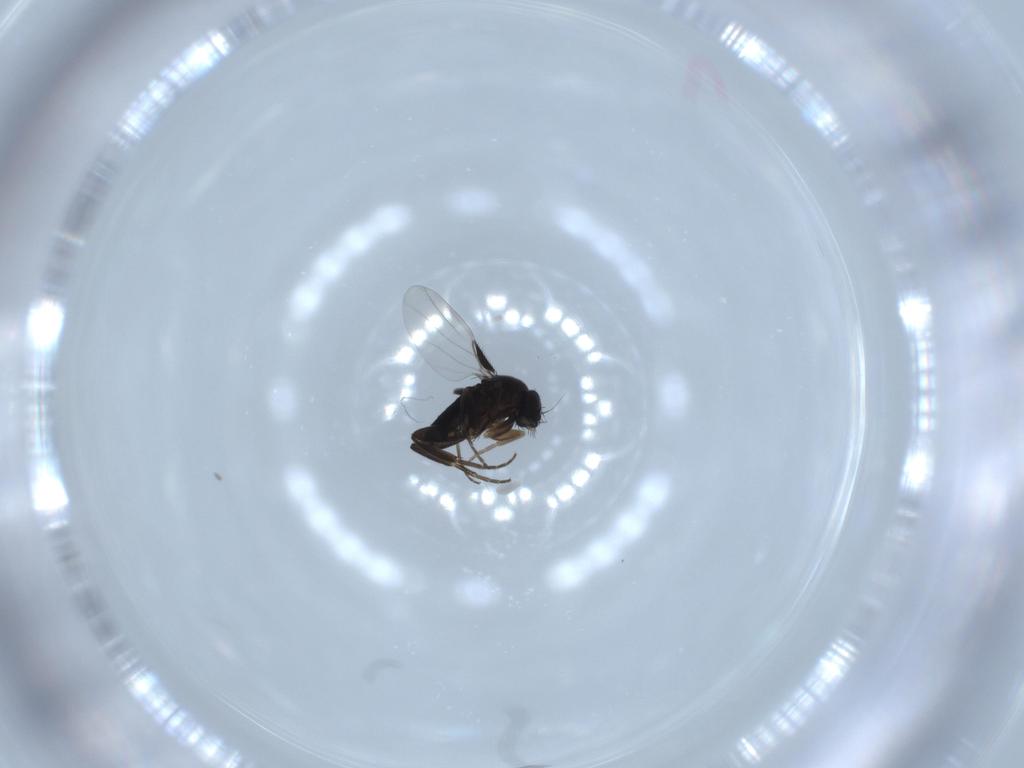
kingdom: Animalia
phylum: Arthropoda
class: Insecta
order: Diptera
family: Phoridae
